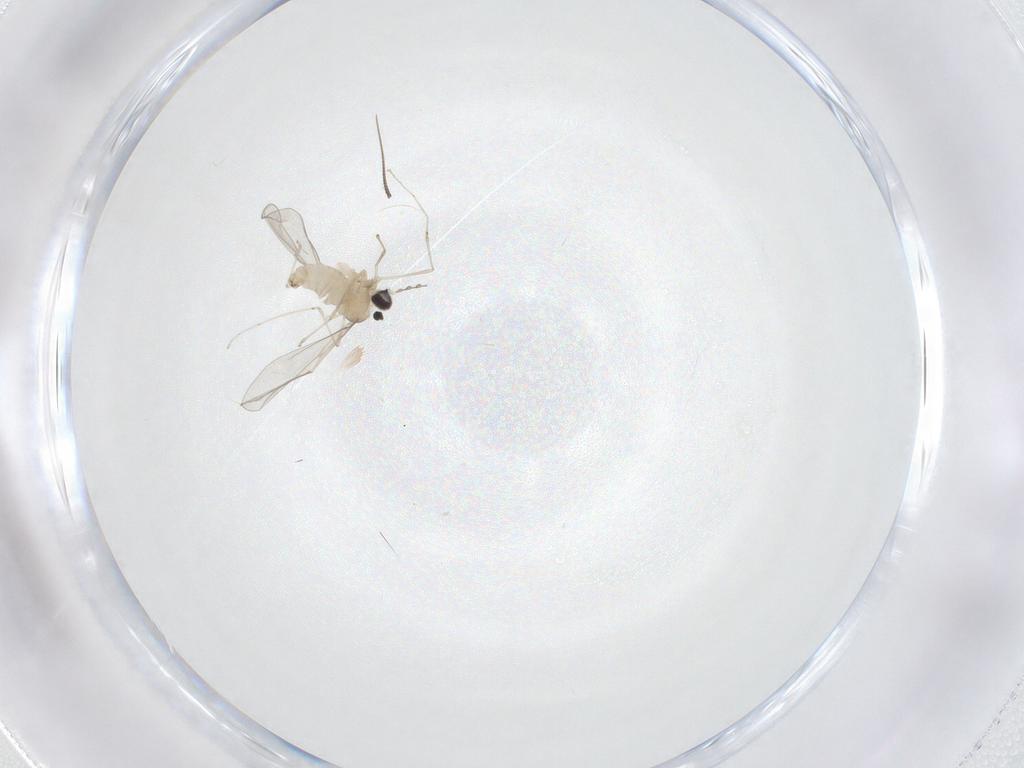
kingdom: Animalia
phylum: Arthropoda
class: Insecta
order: Diptera
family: Cecidomyiidae
